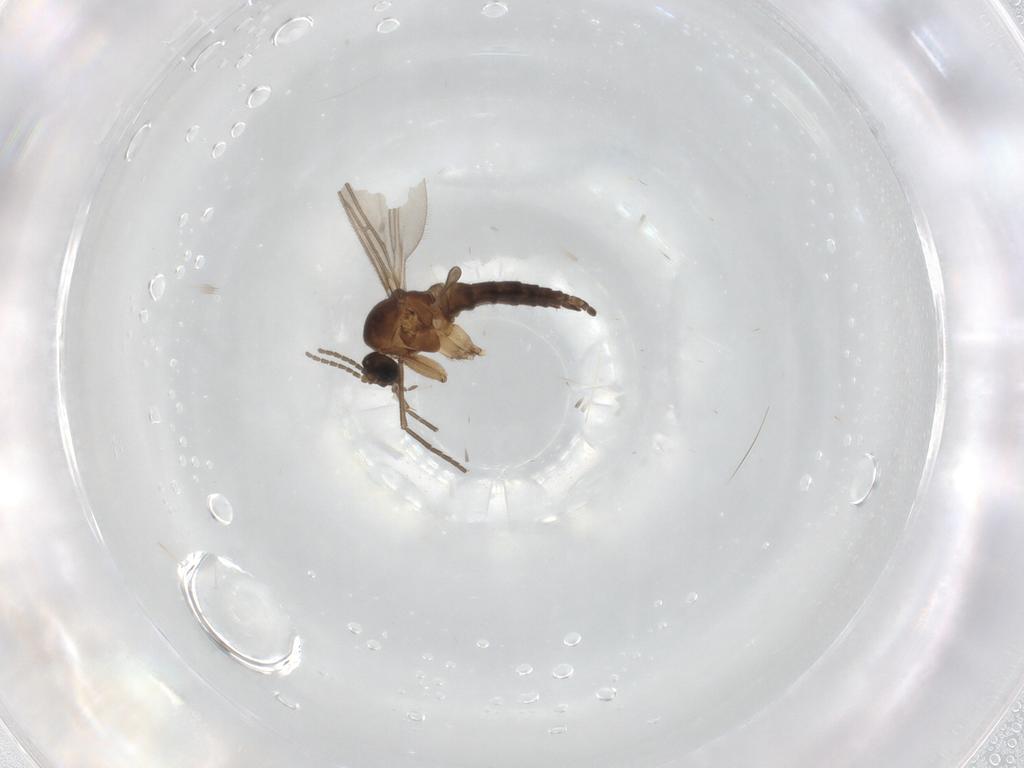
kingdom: Animalia
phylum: Arthropoda
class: Insecta
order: Diptera
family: Sciaridae
